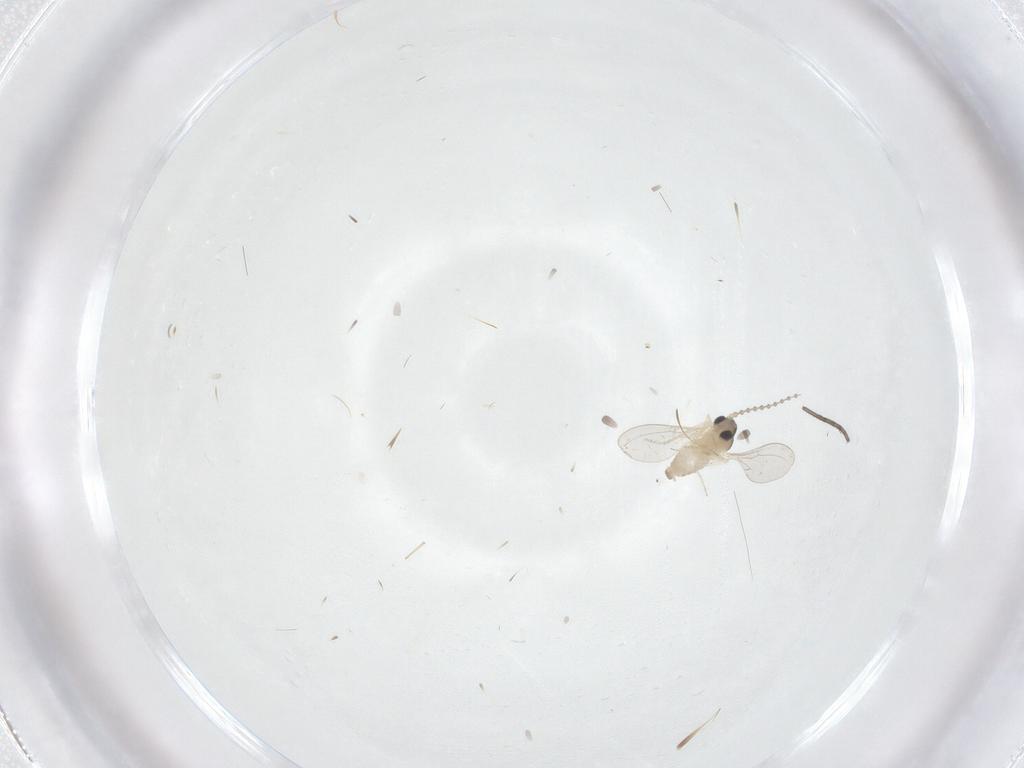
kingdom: Animalia
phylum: Arthropoda
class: Insecta
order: Diptera
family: Cecidomyiidae
